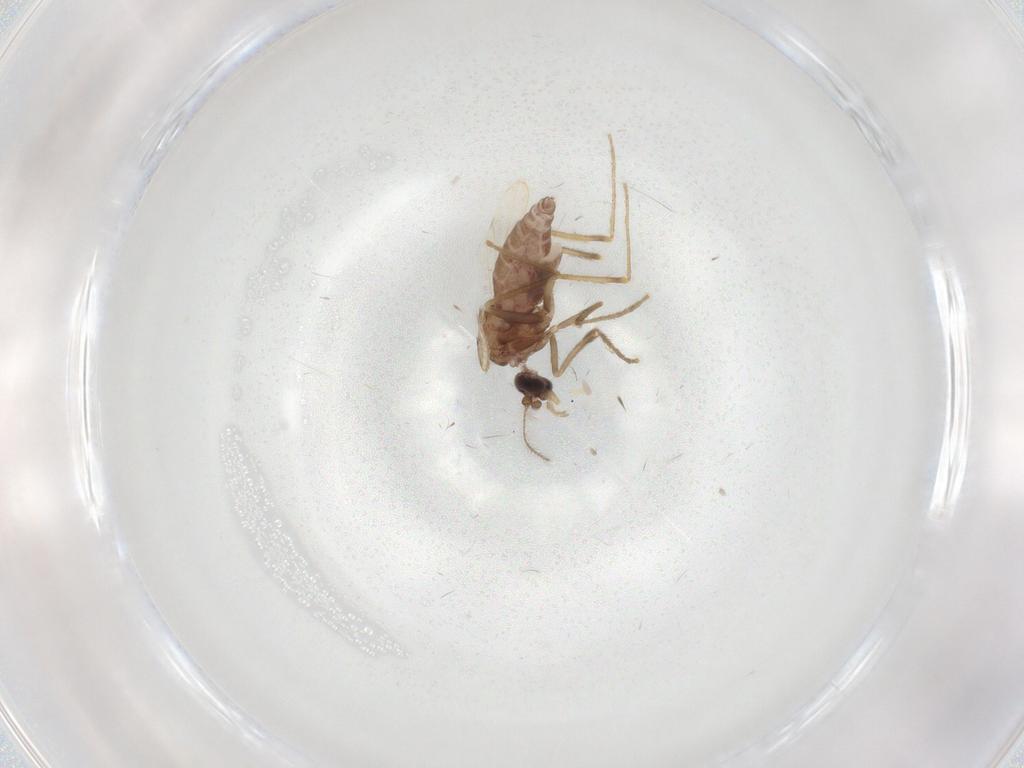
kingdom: Animalia
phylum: Arthropoda
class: Insecta
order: Diptera
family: Corethrellidae
